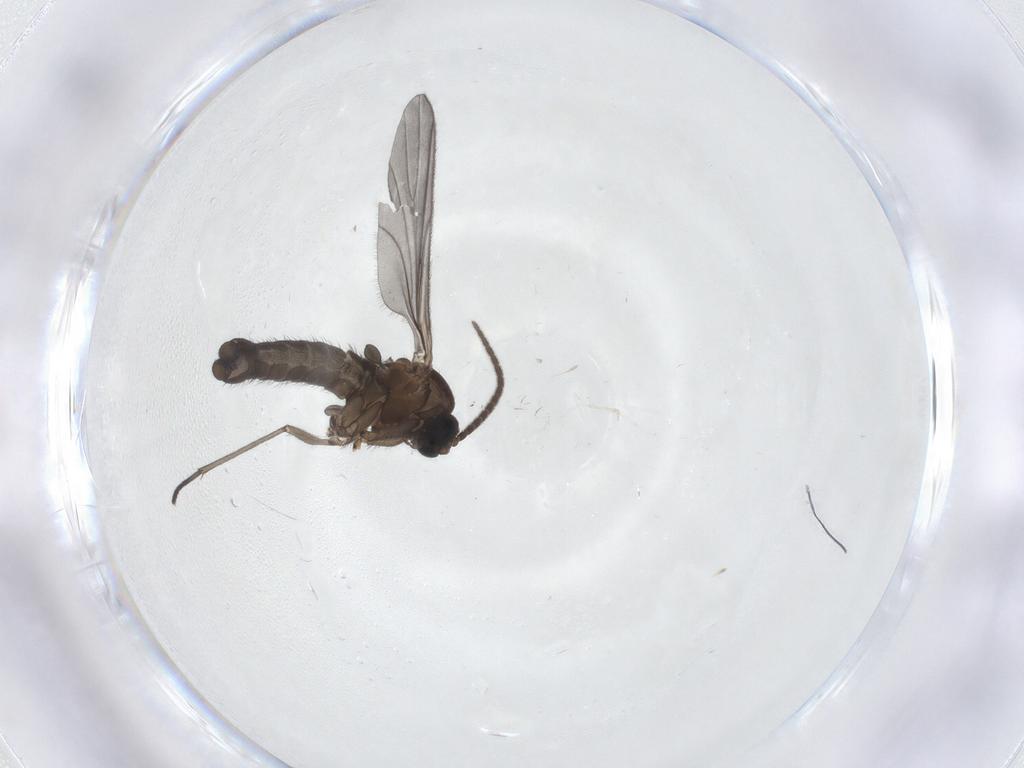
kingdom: Animalia
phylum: Arthropoda
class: Insecta
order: Diptera
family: Sciaridae
